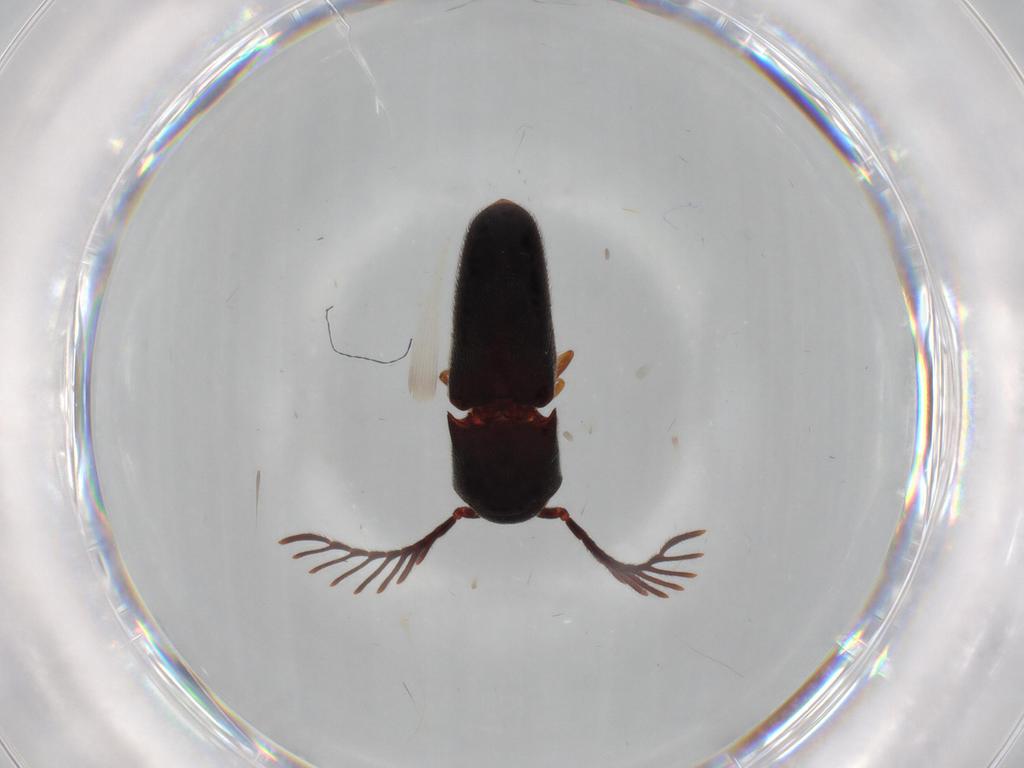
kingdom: Animalia
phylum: Arthropoda
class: Insecta
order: Coleoptera
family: Eucnemidae
